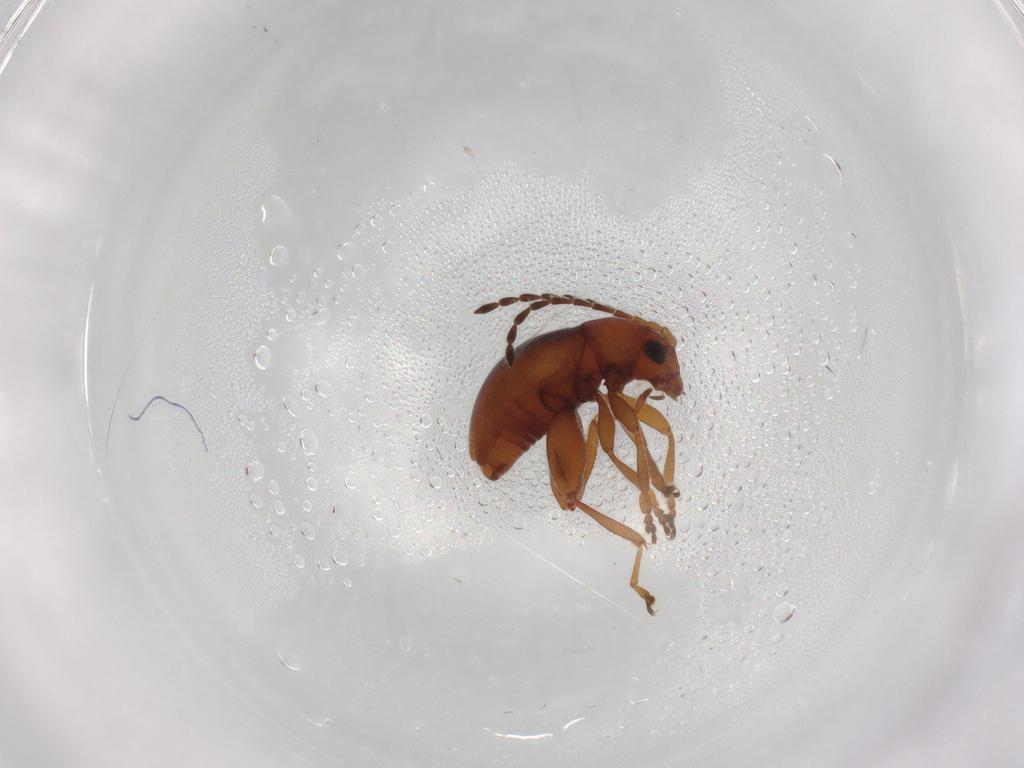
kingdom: Animalia
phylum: Arthropoda
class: Insecta
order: Coleoptera
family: Chrysomelidae
